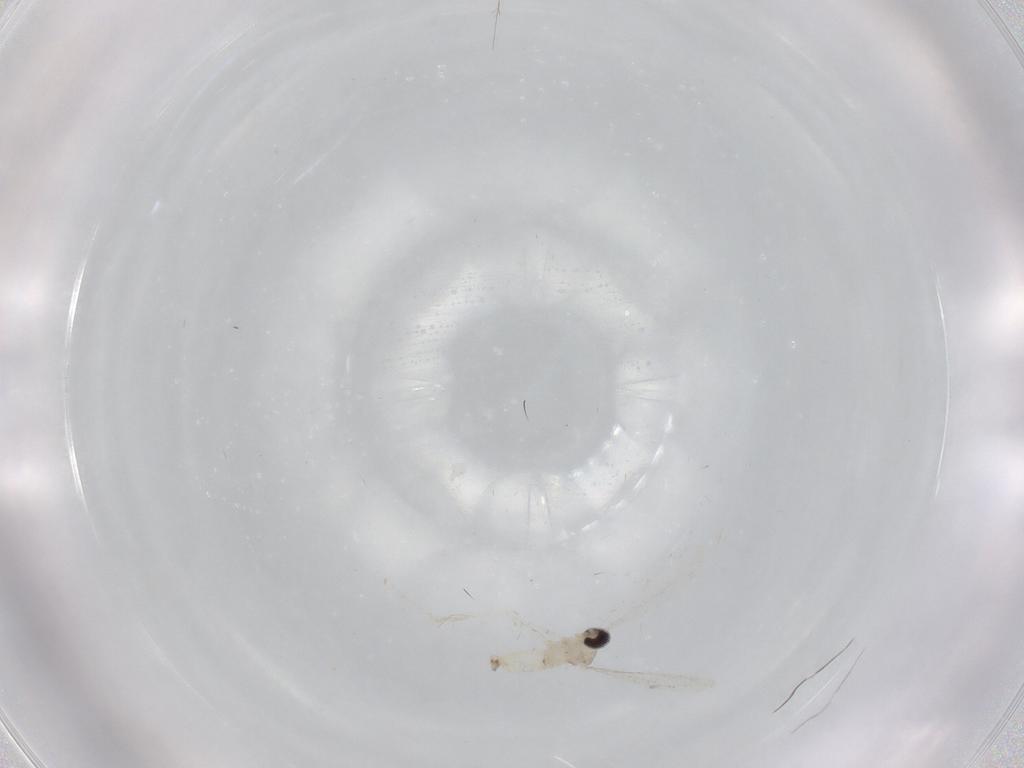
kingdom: Animalia
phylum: Arthropoda
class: Insecta
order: Diptera
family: Cecidomyiidae
